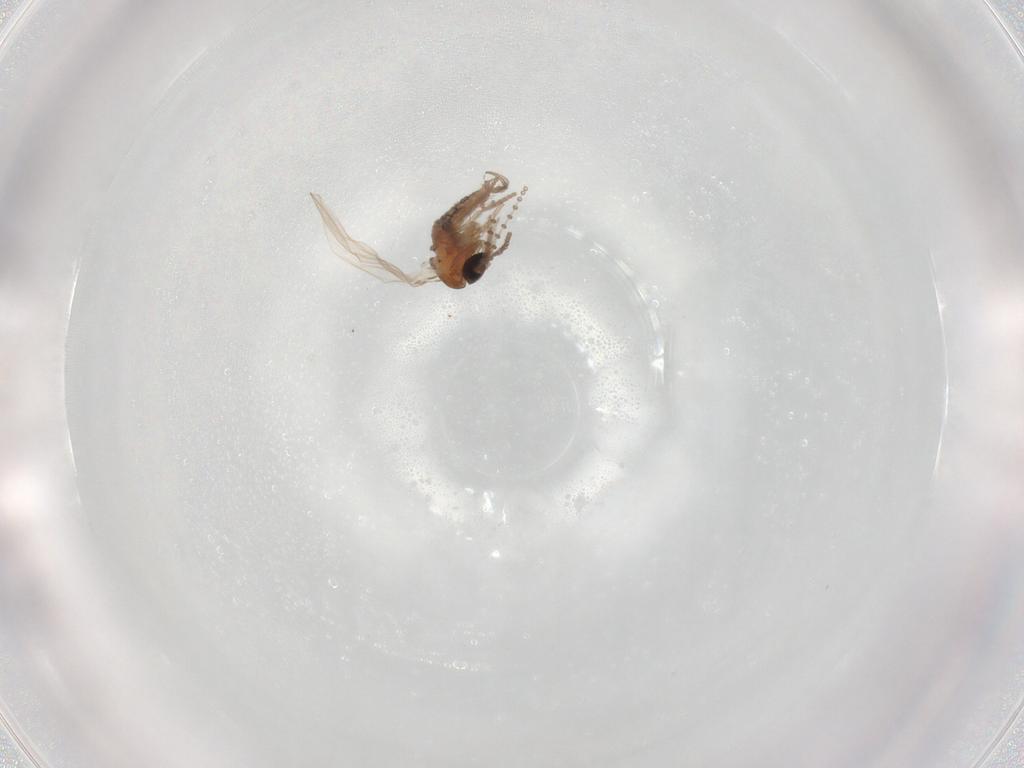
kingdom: Animalia
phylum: Arthropoda
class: Insecta
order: Diptera
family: Psychodidae
